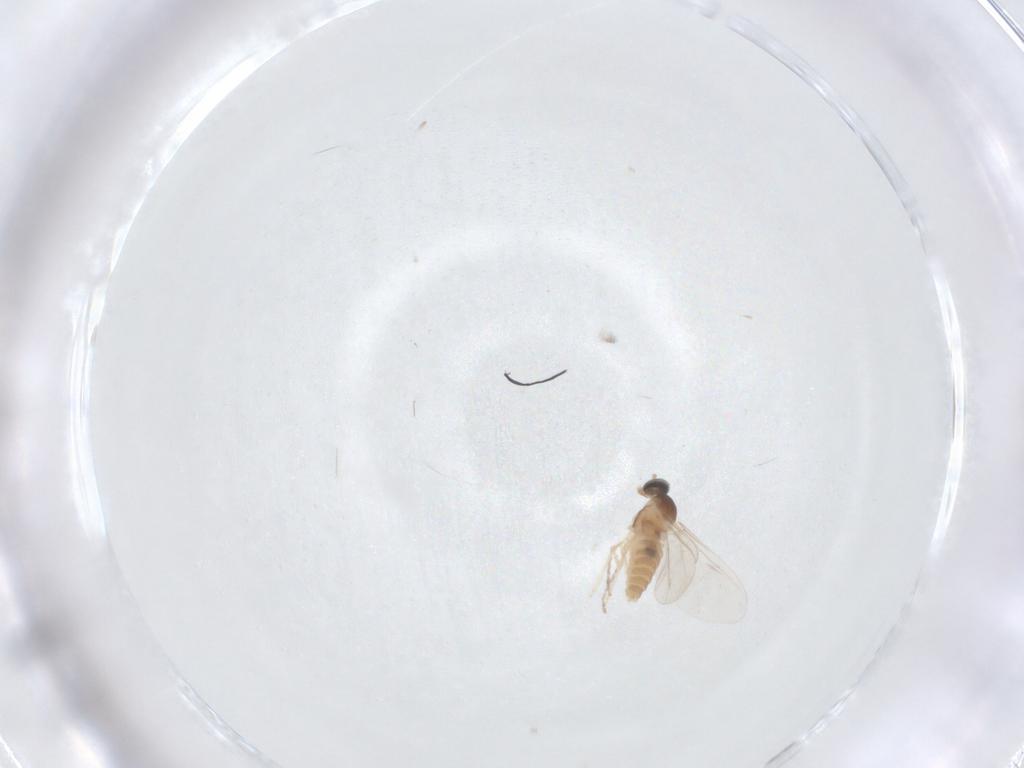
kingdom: Animalia
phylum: Arthropoda
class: Insecta
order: Diptera
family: Cecidomyiidae
